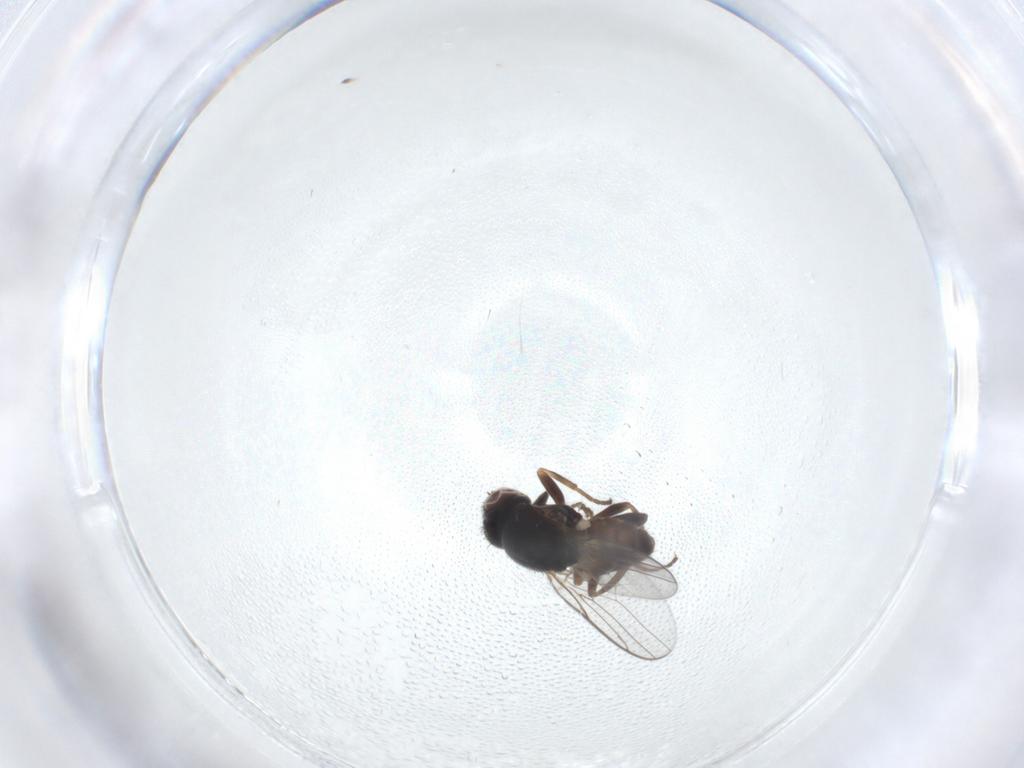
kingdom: Animalia
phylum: Arthropoda
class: Insecta
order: Diptera
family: Chloropidae
